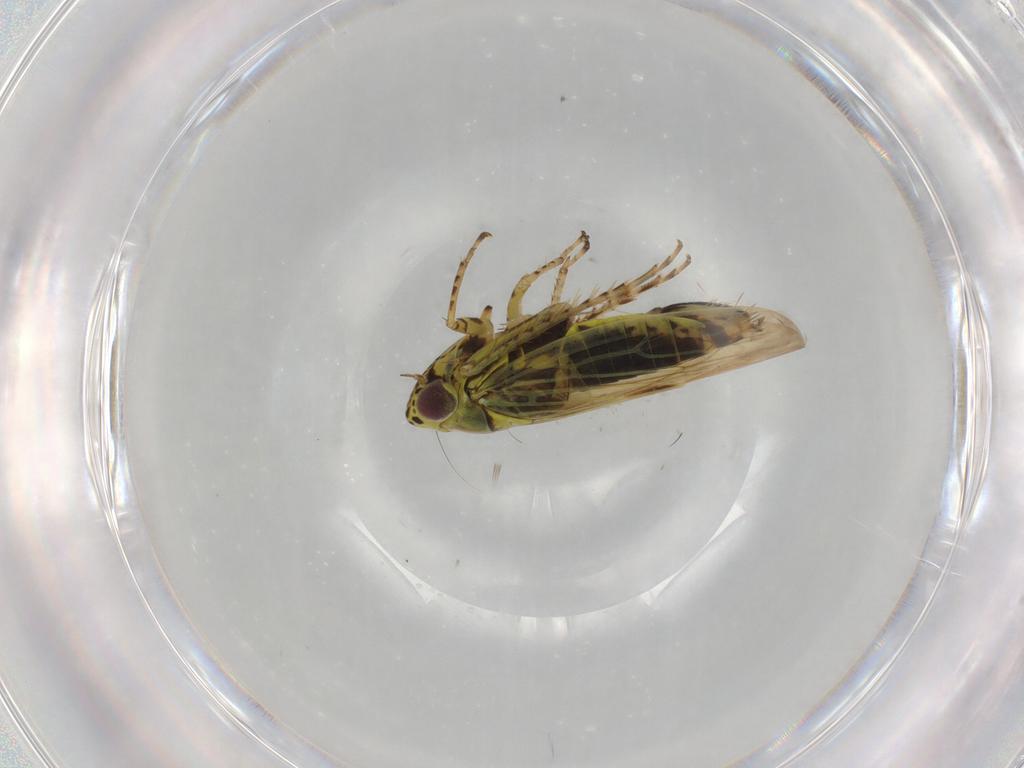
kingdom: Animalia
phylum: Arthropoda
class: Insecta
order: Hemiptera
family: Cicadellidae
